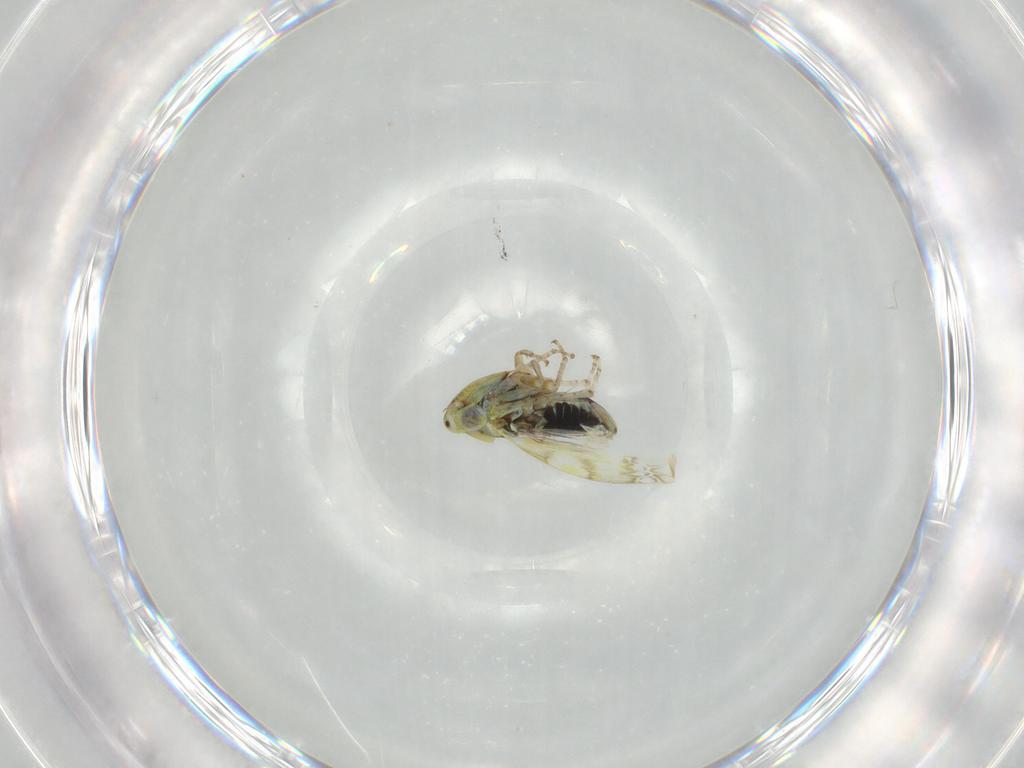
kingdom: Animalia
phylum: Arthropoda
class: Insecta
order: Hemiptera
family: Cicadellidae
